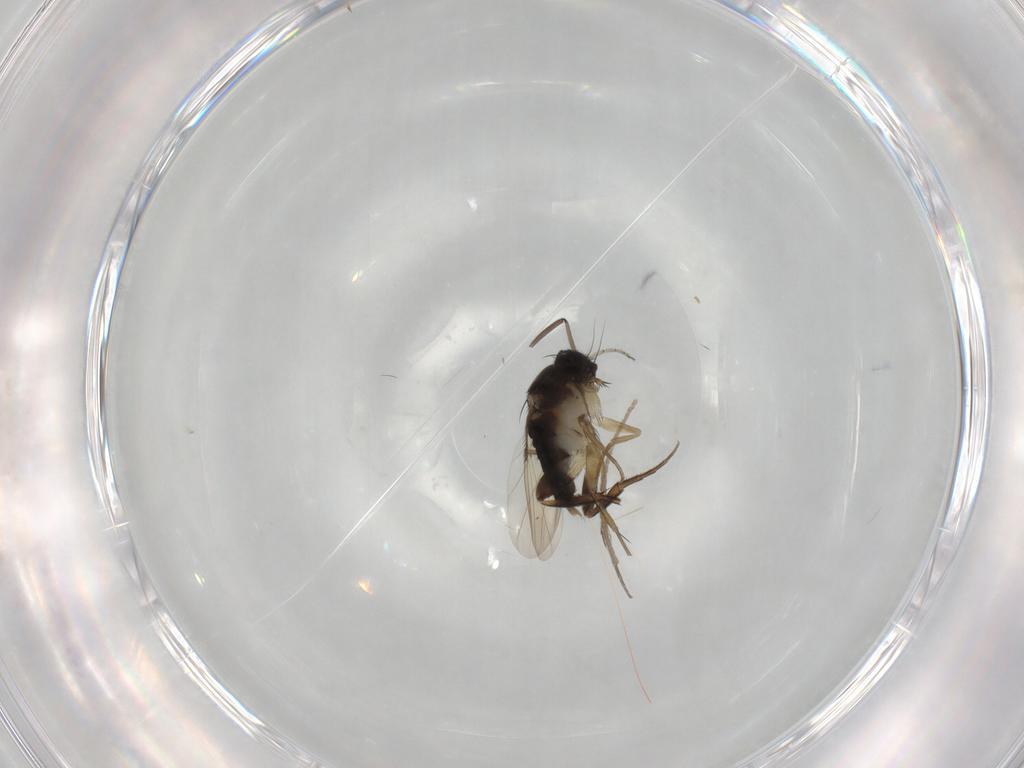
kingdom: Animalia
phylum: Arthropoda
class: Insecta
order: Diptera
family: Phoridae
